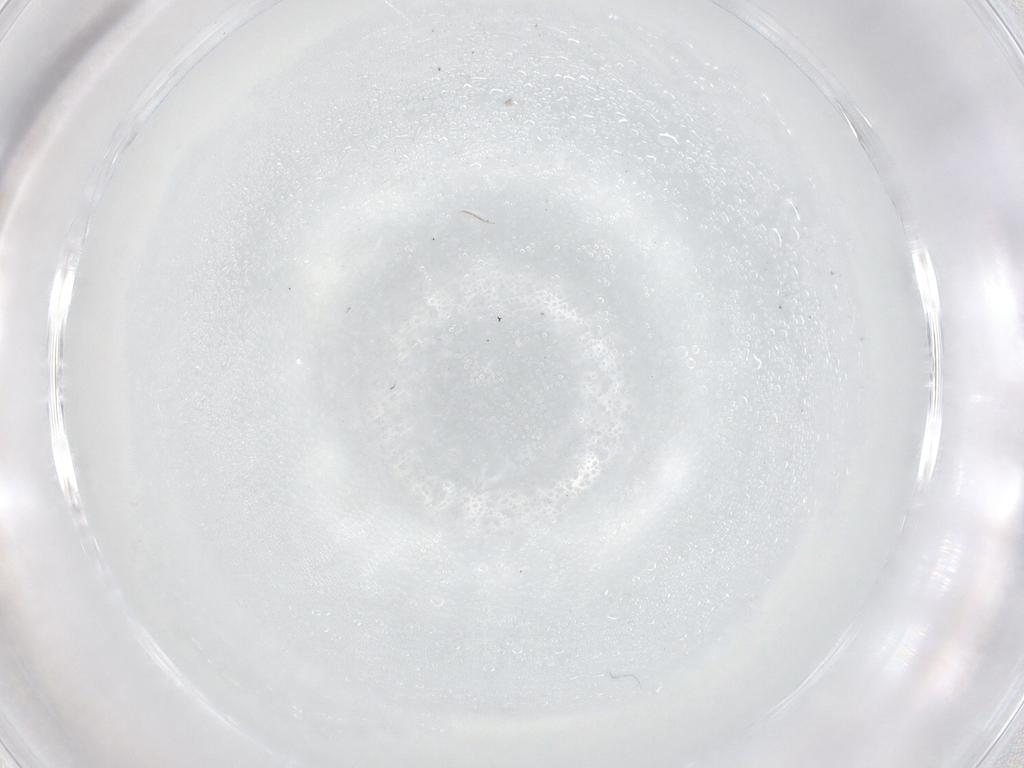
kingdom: Animalia
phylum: Arthropoda
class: Arachnida
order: Trombidiformes
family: Eupodidae
